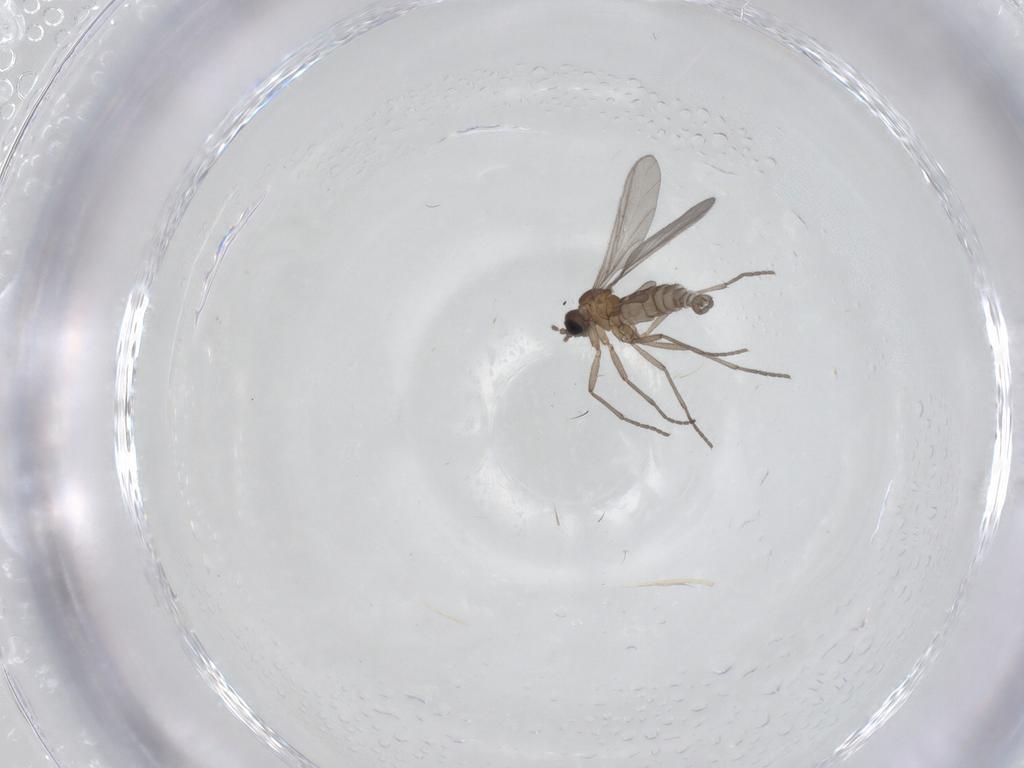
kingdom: Animalia
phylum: Arthropoda
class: Insecta
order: Diptera
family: Sciaridae
